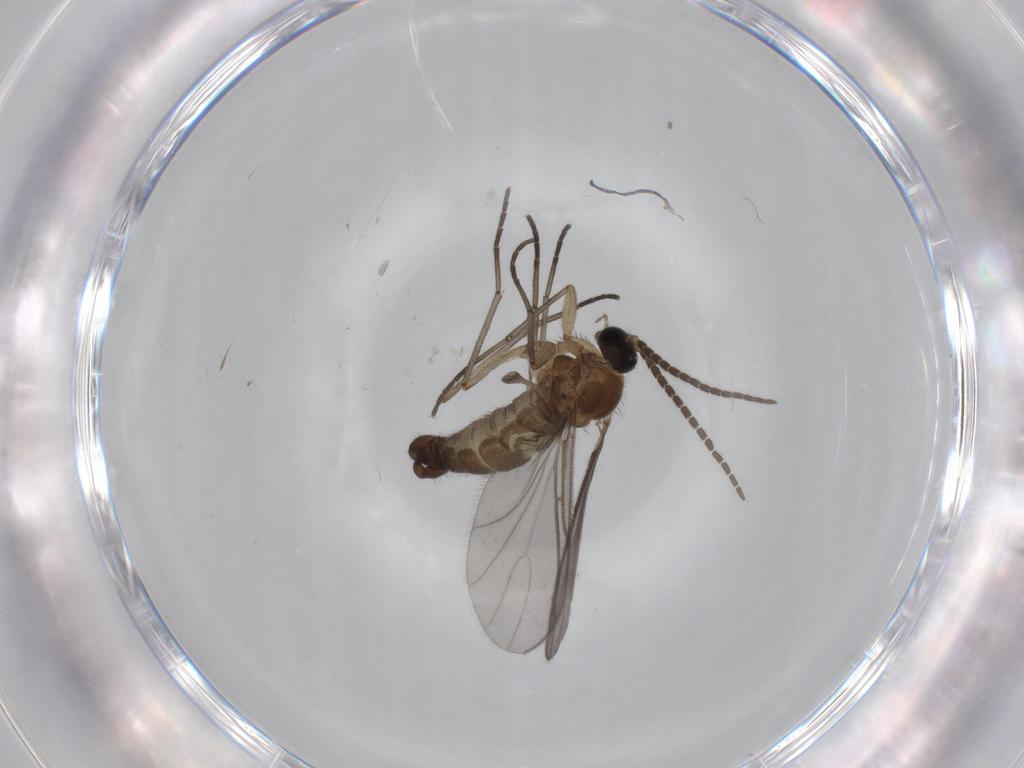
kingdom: Animalia
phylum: Arthropoda
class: Insecta
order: Diptera
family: Sciaridae
